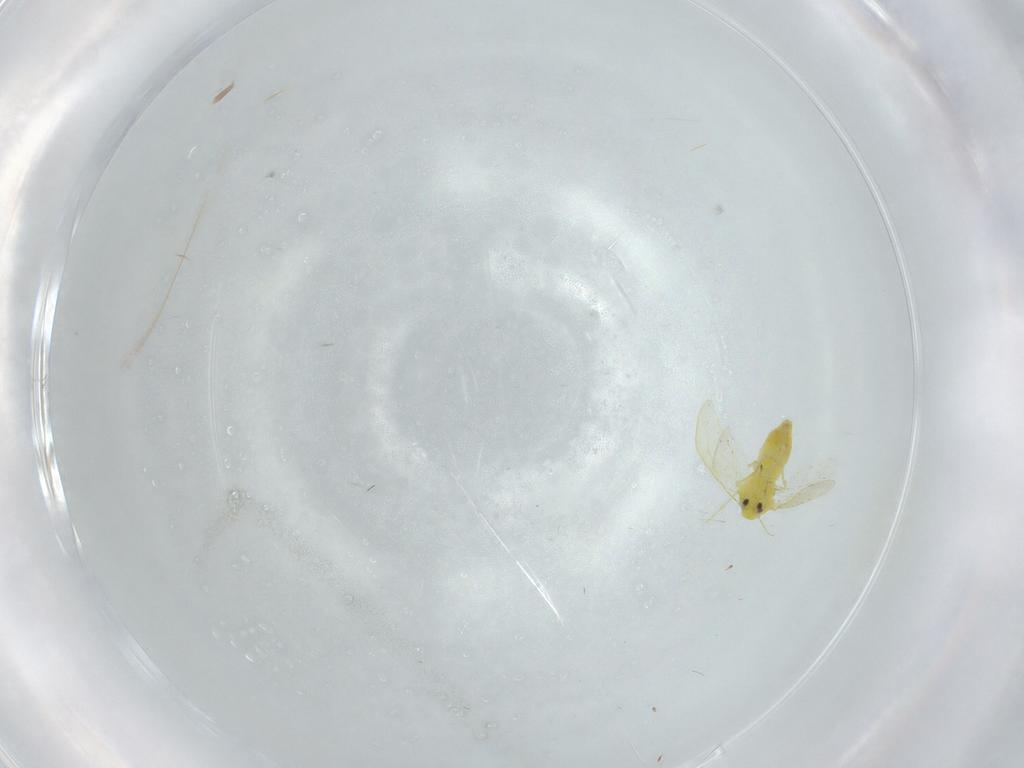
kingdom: Animalia
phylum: Arthropoda
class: Insecta
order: Hemiptera
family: Aleyrodidae
